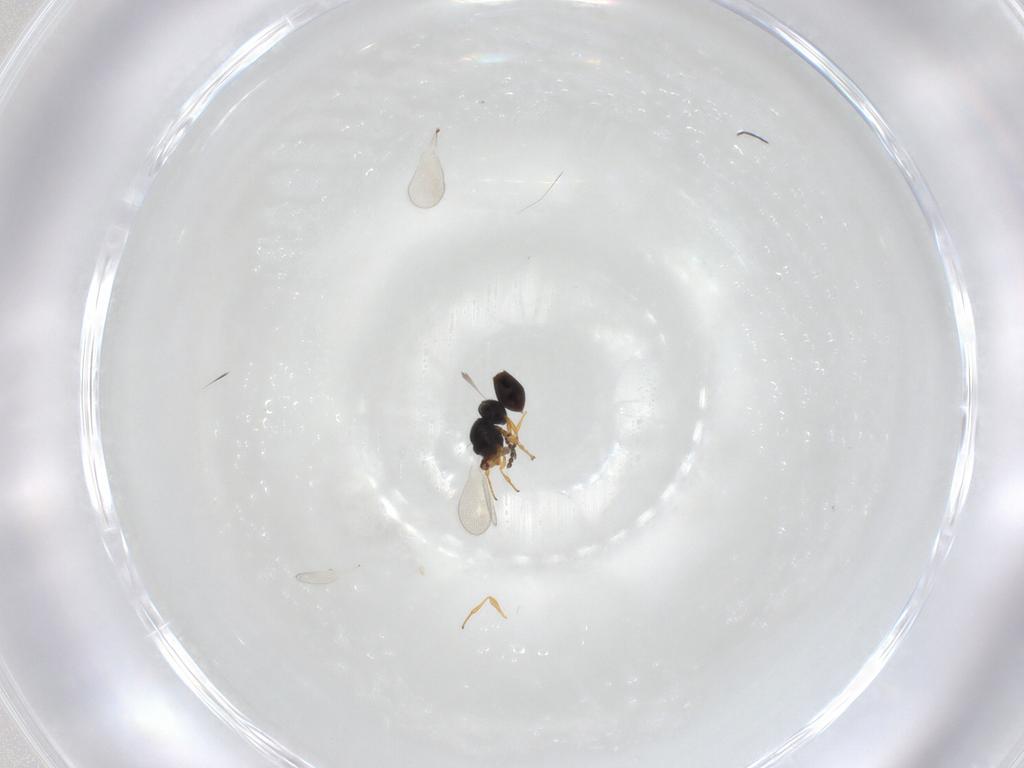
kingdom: Animalia
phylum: Arthropoda
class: Insecta
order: Hymenoptera
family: Platygastridae
